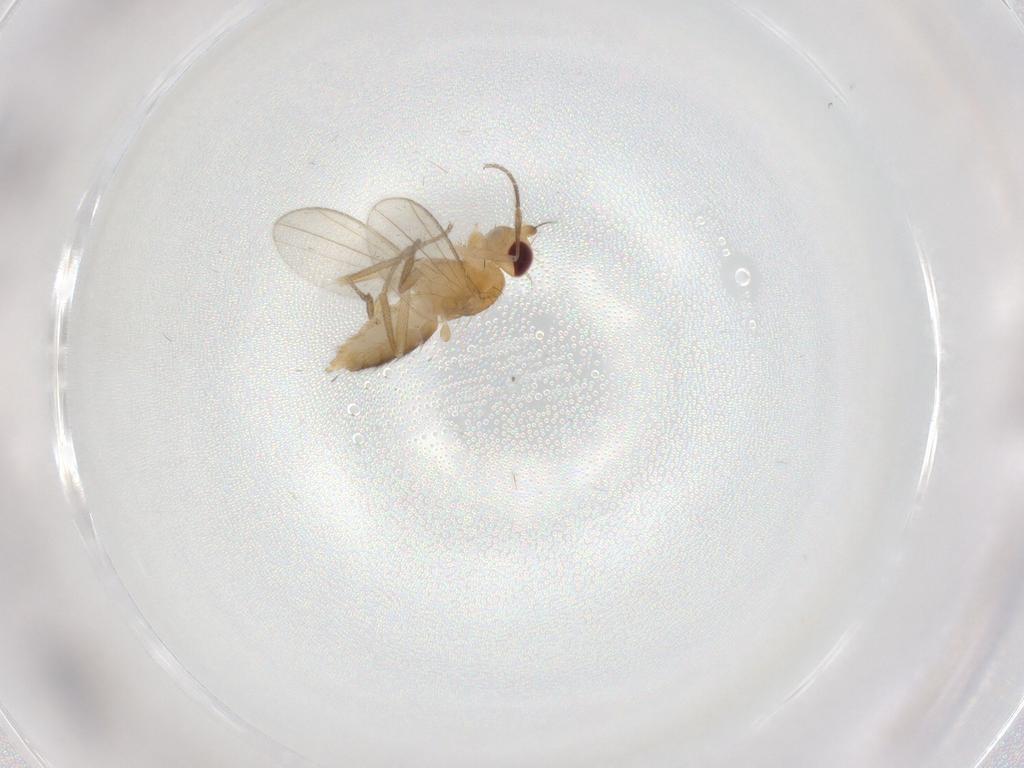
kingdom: Animalia
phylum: Arthropoda
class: Insecta
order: Diptera
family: Clusiidae
